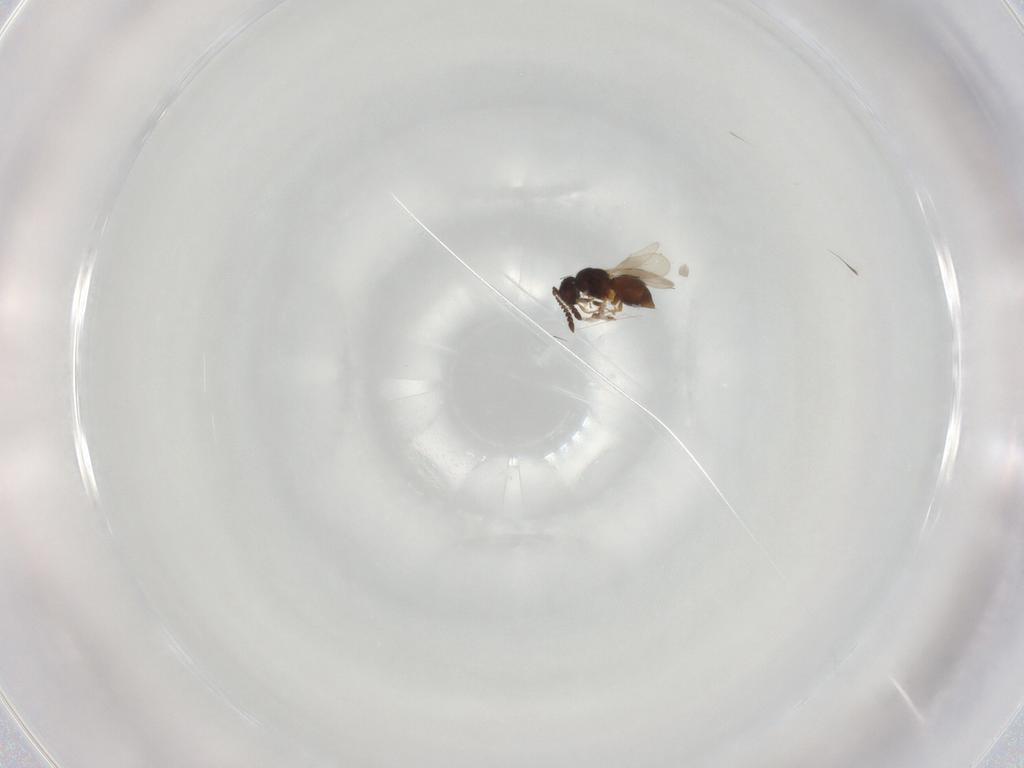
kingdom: Animalia
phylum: Arthropoda
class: Insecta
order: Hymenoptera
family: Ceraphronidae
